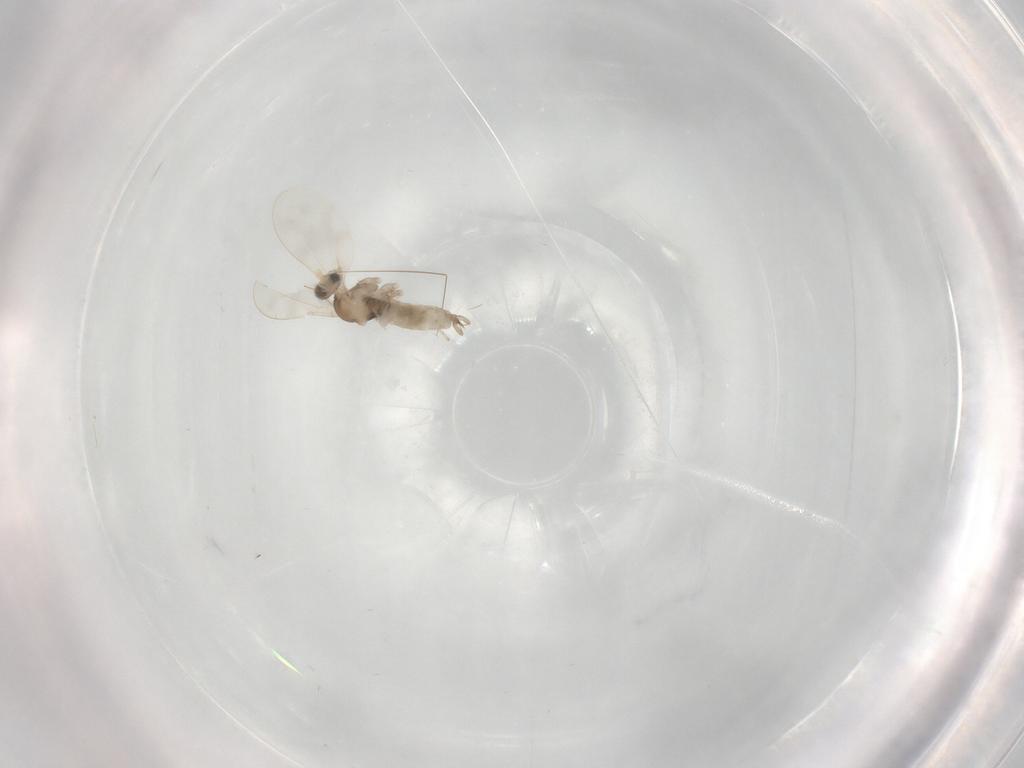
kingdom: Animalia
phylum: Arthropoda
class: Insecta
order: Diptera
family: Cecidomyiidae
